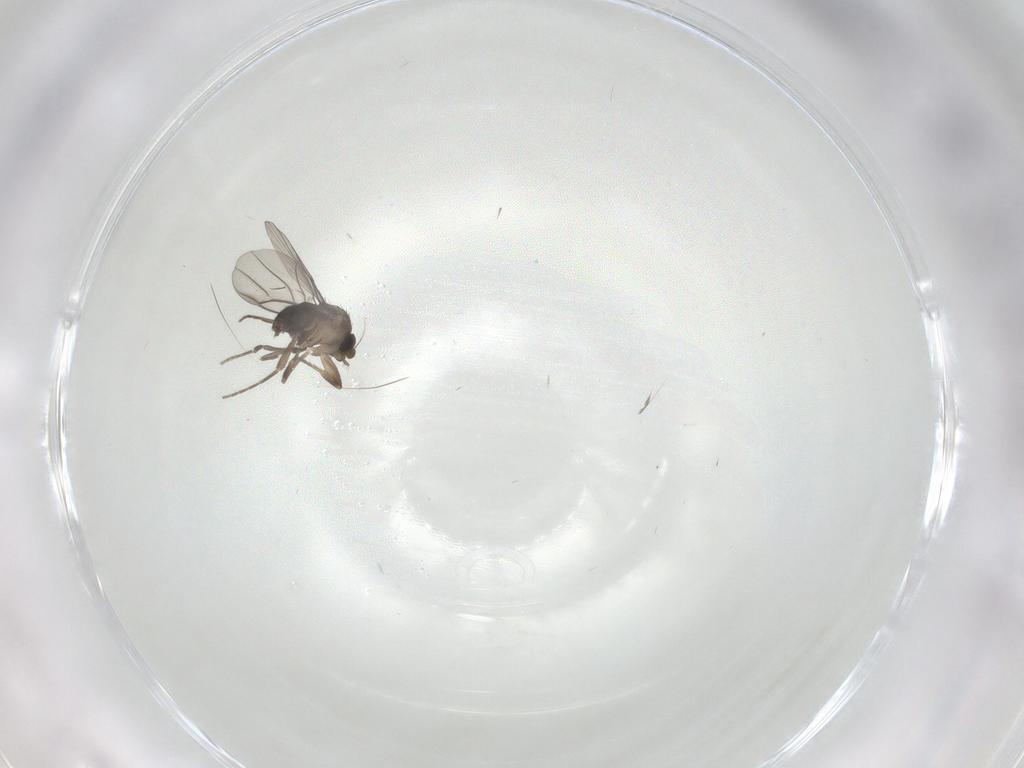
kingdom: Animalia
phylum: Arthropoda
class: Insecta
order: Diptera
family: Phoridae
